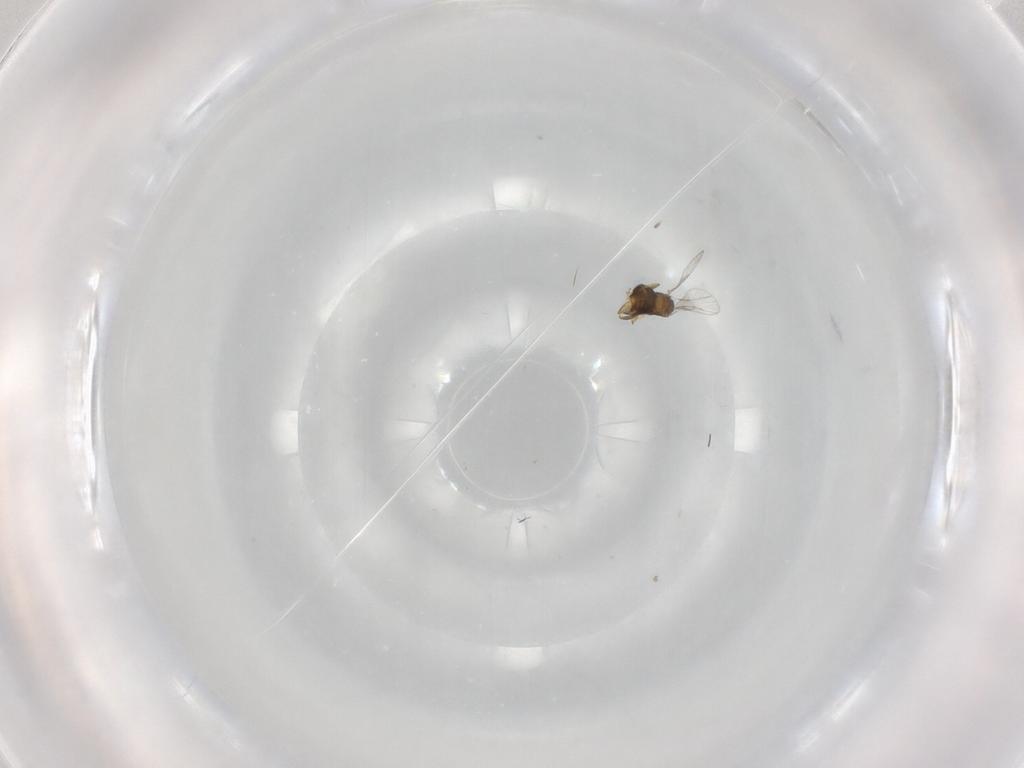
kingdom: Animalia
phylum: Arthropoda
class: Insecta
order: Hymenoptera
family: Trichogrammatidae
